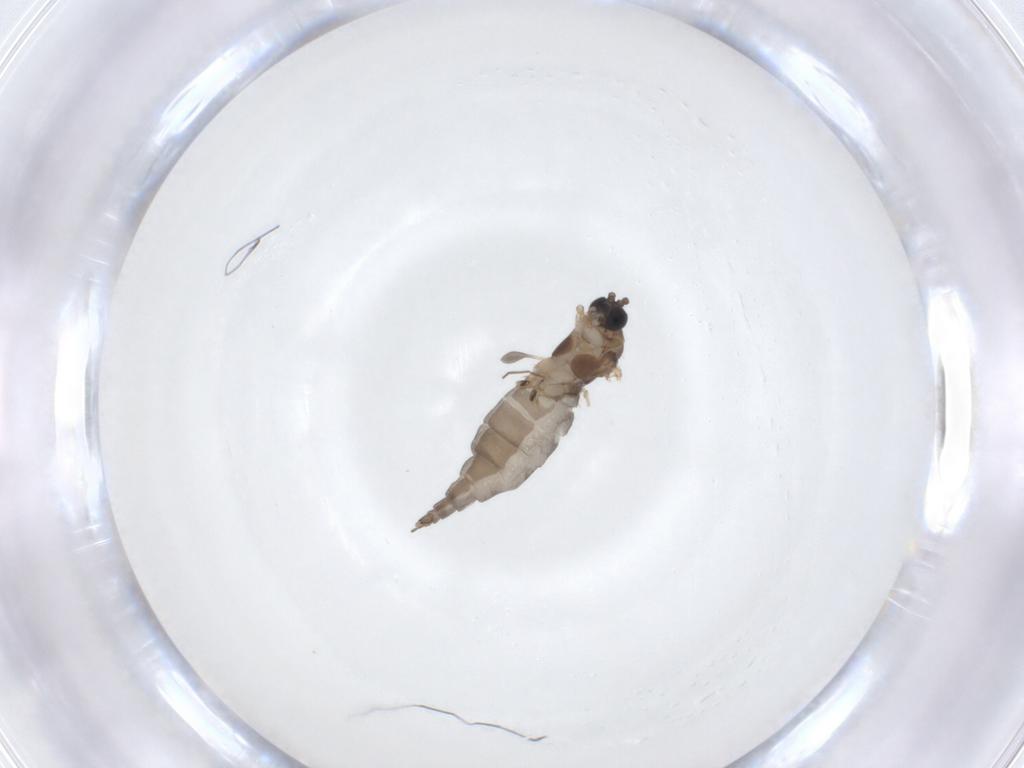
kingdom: Animalia
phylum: Arthropoda
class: Insecta
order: Diptera
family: Sciaridae
